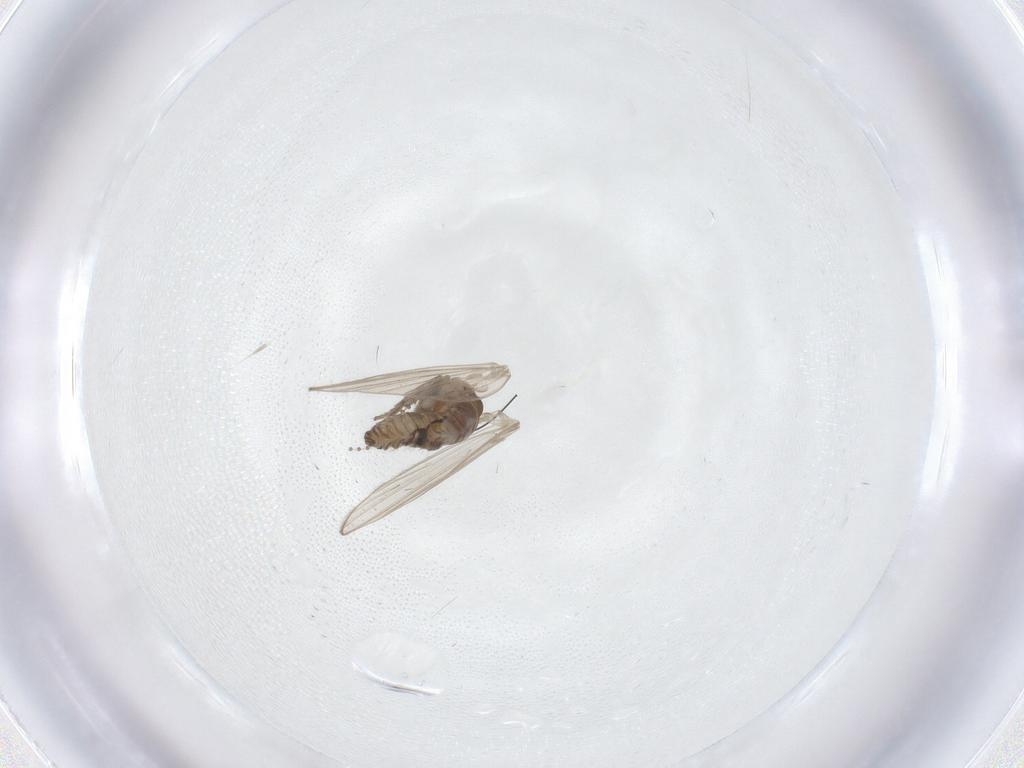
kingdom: Animalia
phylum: Arthropoda
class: Insecta
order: Diptera
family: Psychodidae
